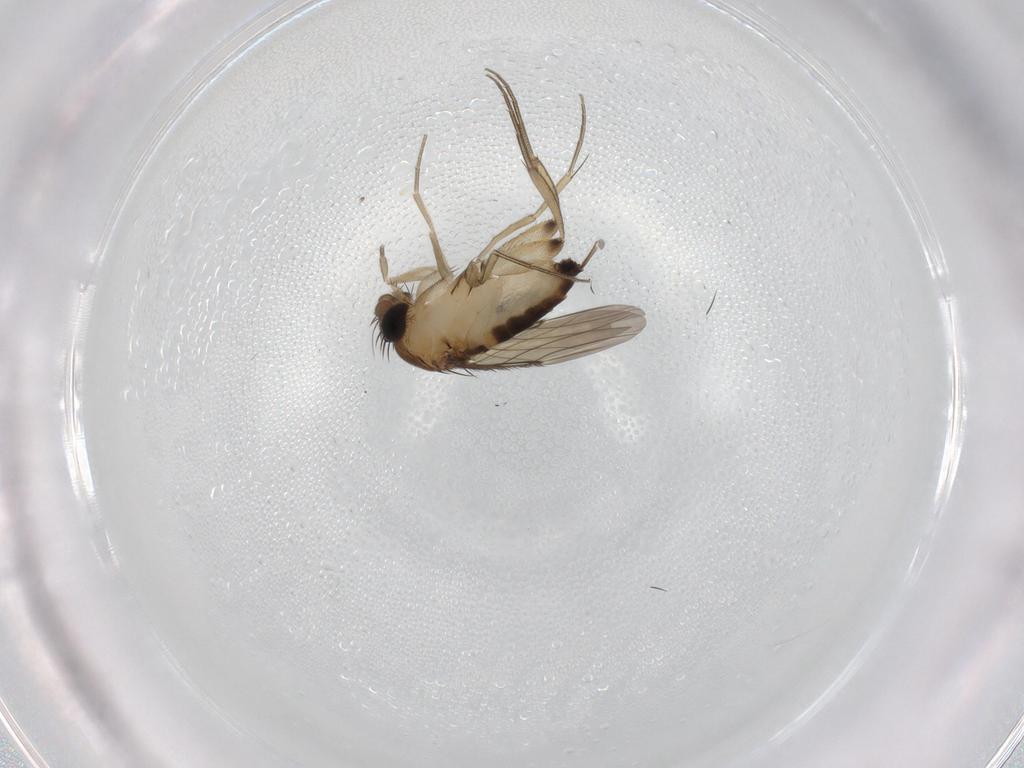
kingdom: Animalia
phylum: Arthropoda
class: Insecta
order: Diptera
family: Phoridae
